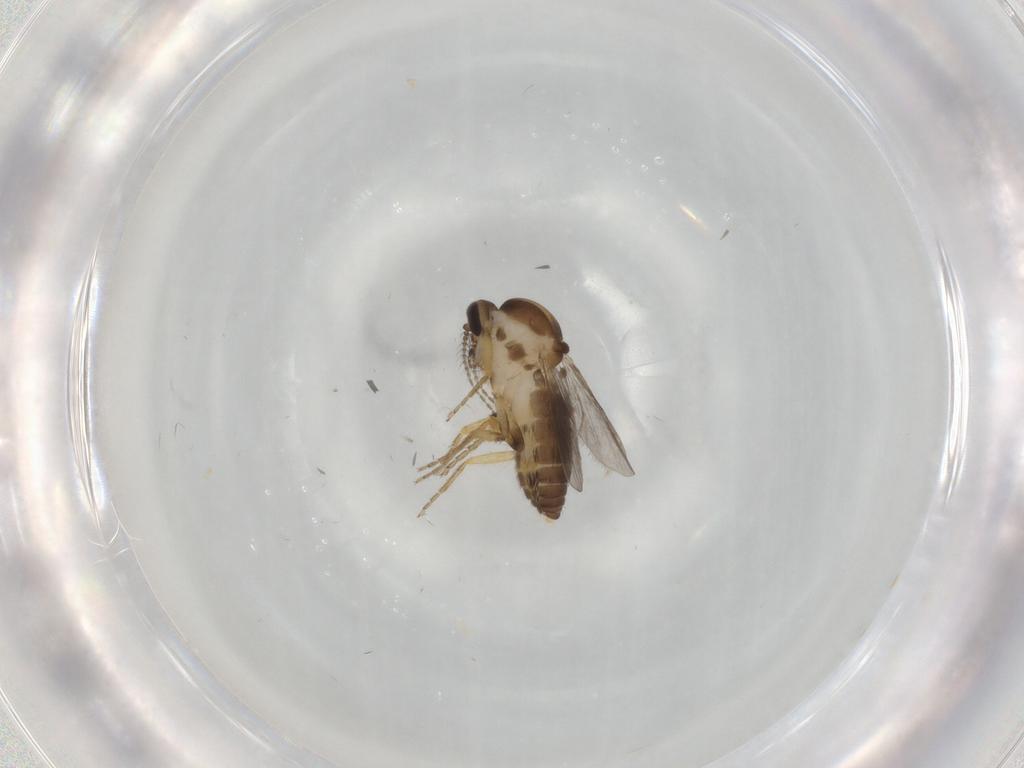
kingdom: Animalia
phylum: Arthropoda
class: Insecta
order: Diptera
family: Ceratopogonidae
